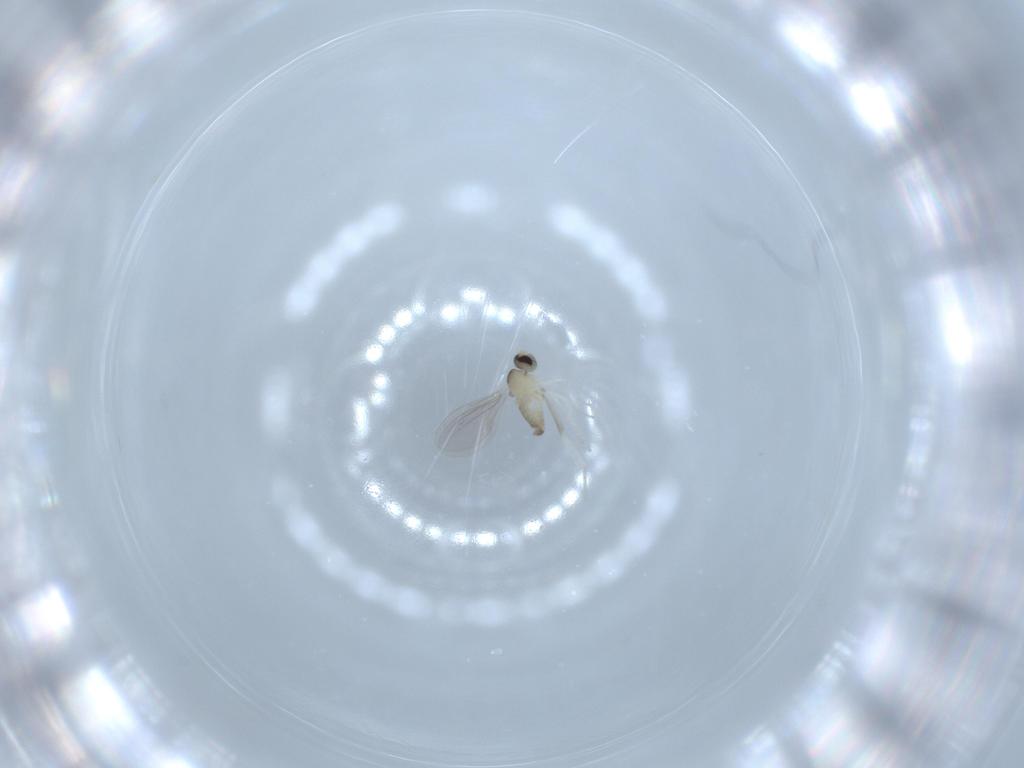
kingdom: Animalia
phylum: Arthropoda
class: Insecta
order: Diptera
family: Cecidomyiidae
